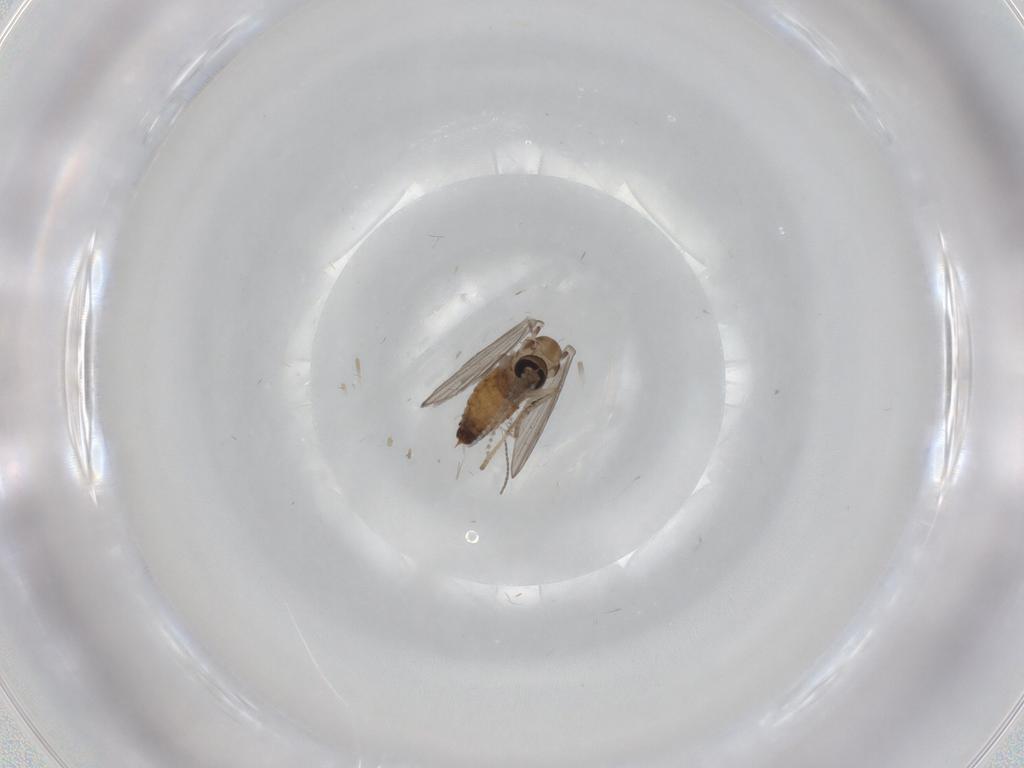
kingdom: Animalia
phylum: Arthropoda
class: Insecta
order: Diptera
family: Psychodidae
